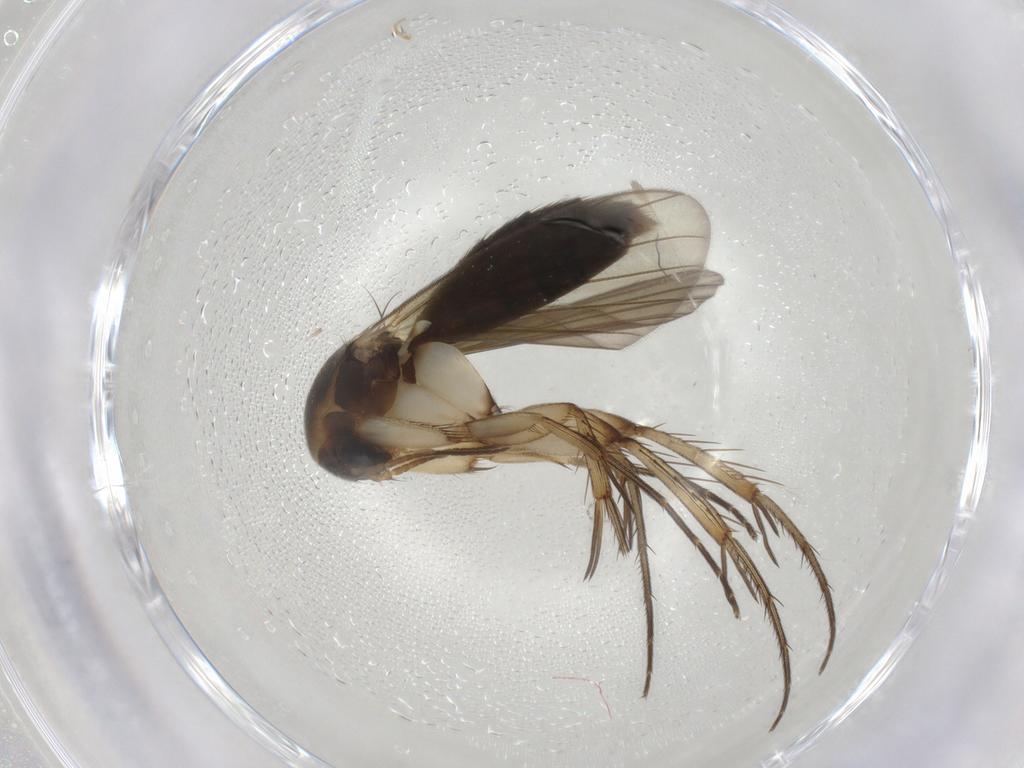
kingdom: Animalia
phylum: Arthropoda
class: Insecta
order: Diptera
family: Mycetophilidae
